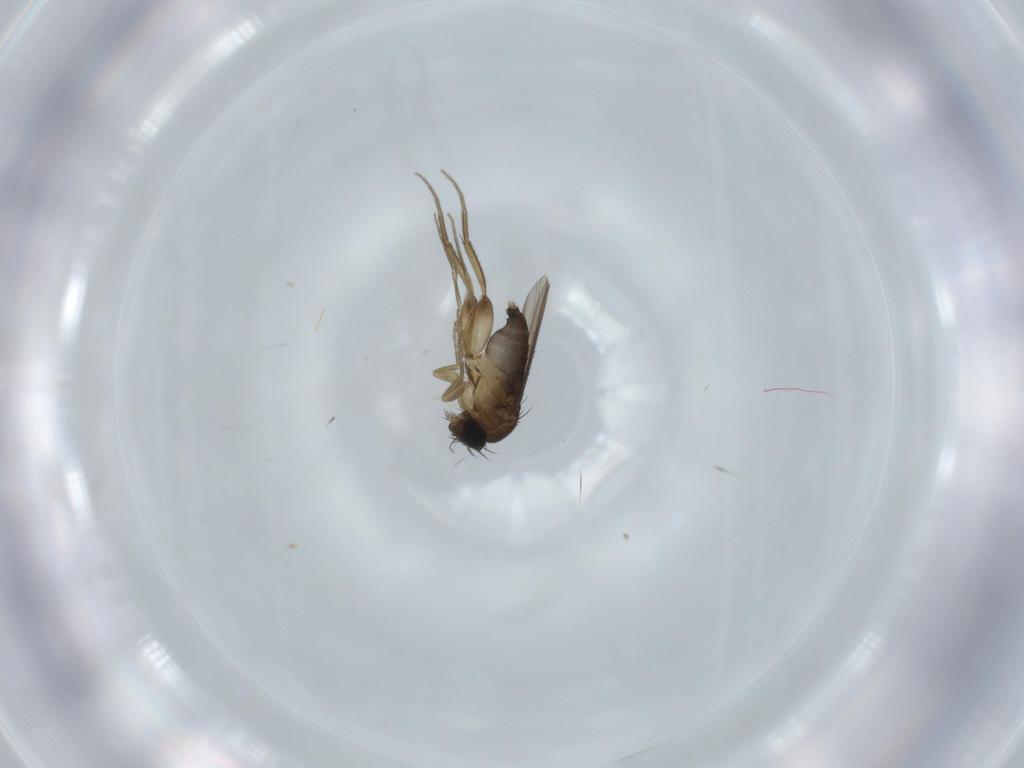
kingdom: Animalia
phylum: Arthropoda
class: Insecta
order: Diptera
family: Phoridae
